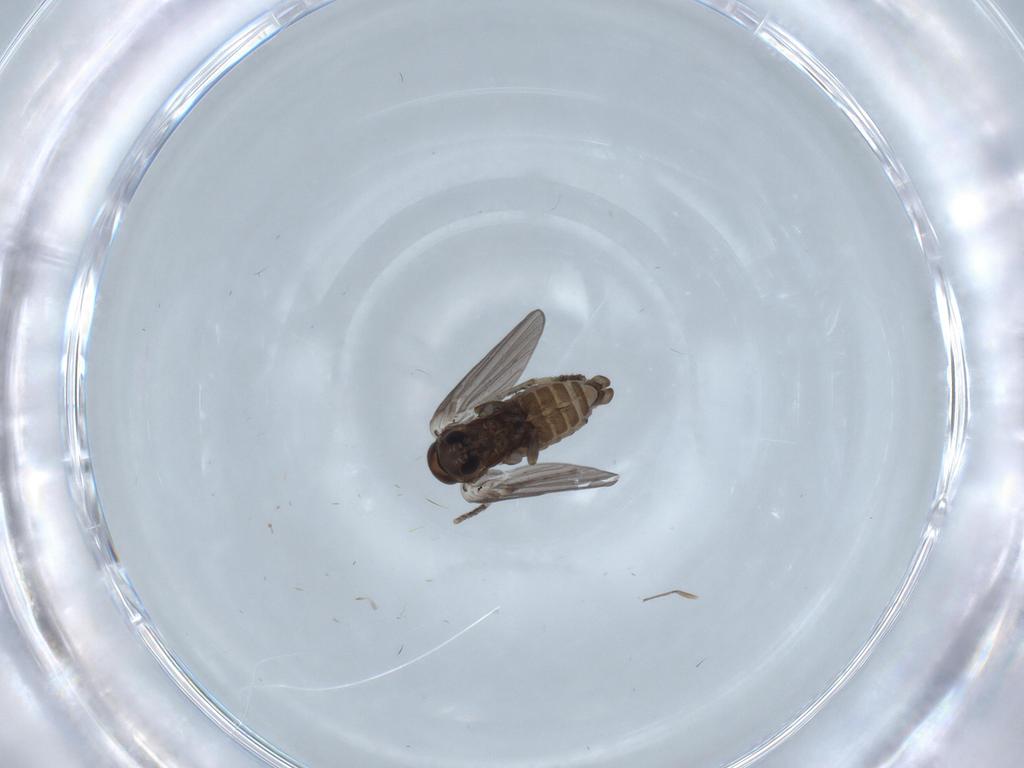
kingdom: Animalia
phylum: Arthropoda
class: Insecta
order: Diptera
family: Psychodidae
